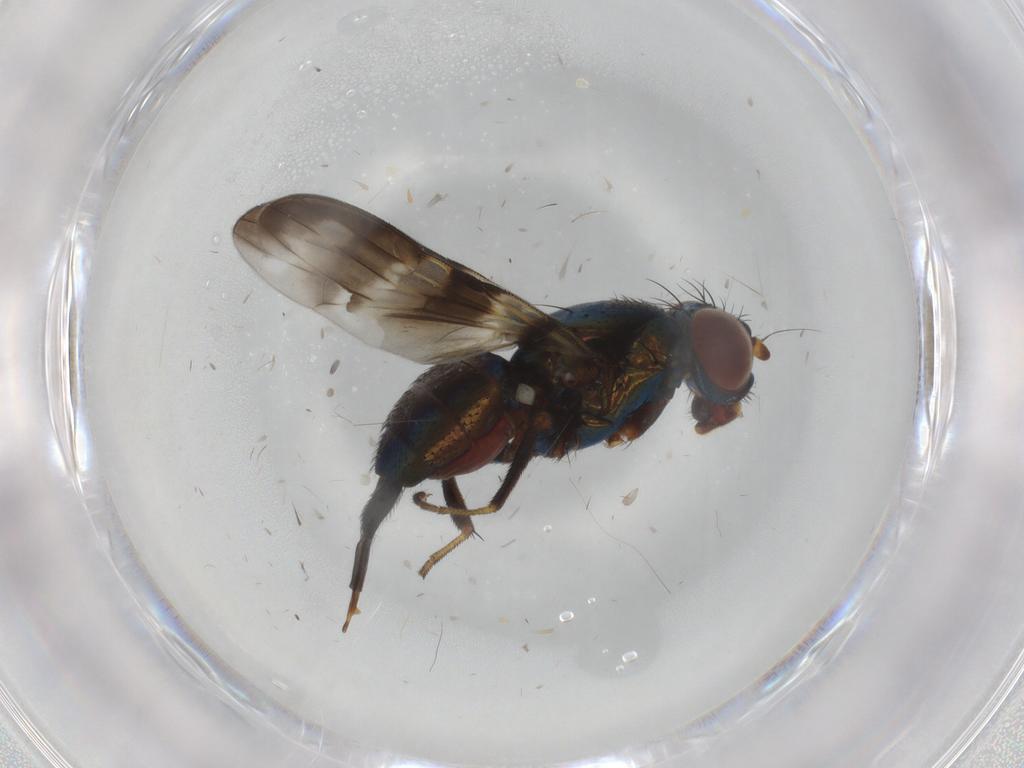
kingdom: Animalia
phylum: Arthropoda
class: Insecta
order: Diptera
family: Ulidiidae
